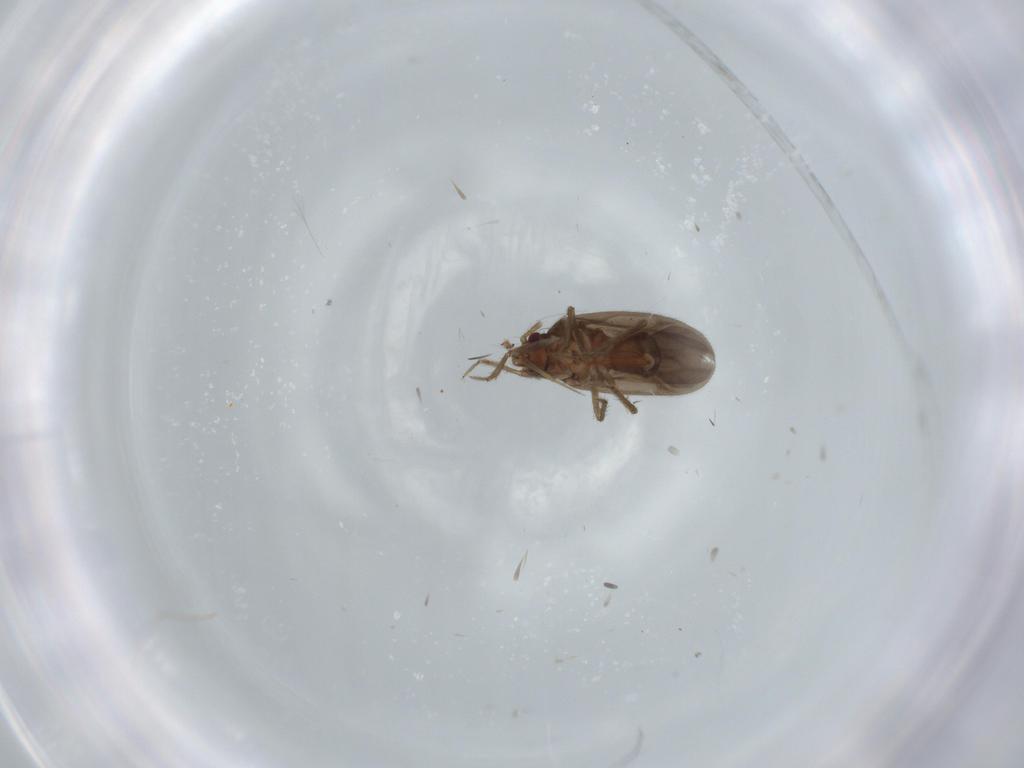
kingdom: Animalia
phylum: Arthropoda
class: Insecta
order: Hemiptera
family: Ceratocombidae
